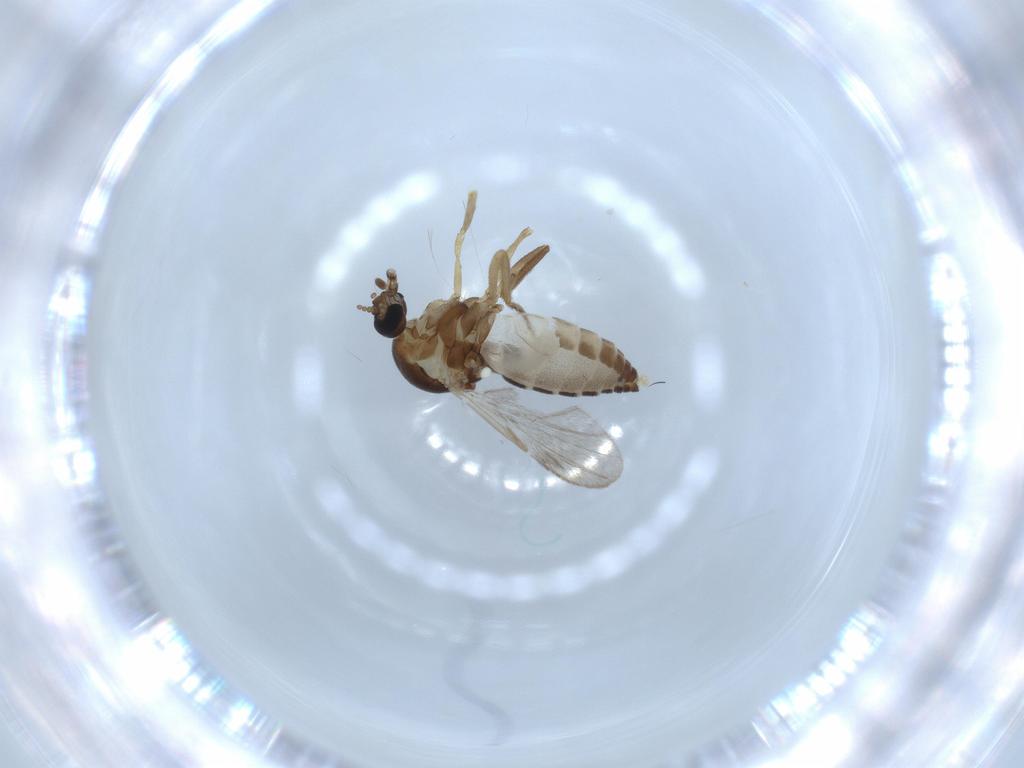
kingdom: Animalia
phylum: Arthropoda
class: Insecta
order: Diptera
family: Ceratopogonidae
